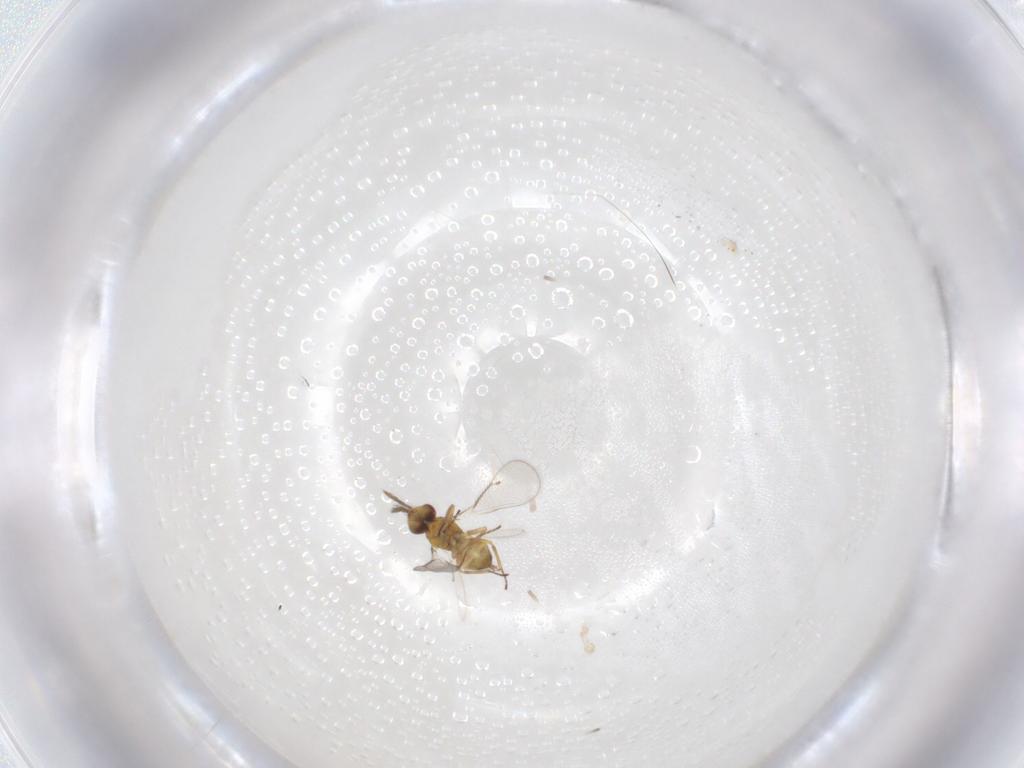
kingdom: Animalia
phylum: Arthropoda
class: Insecta
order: Hymenoptera
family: Eulophidae
